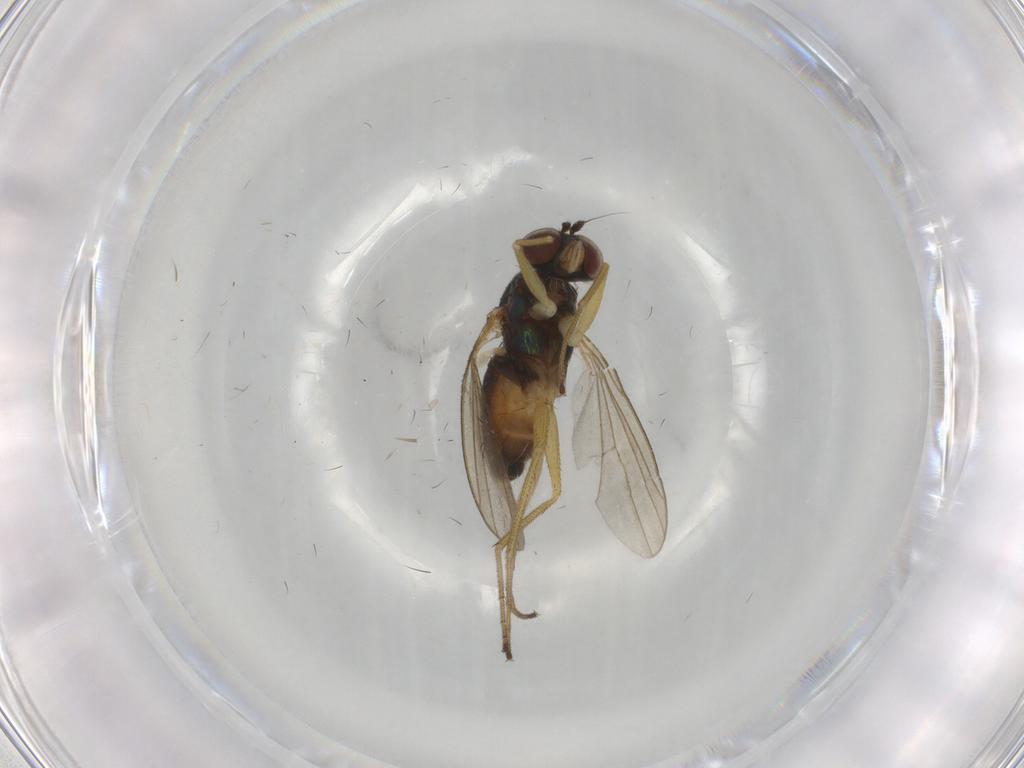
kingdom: Animalia
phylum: Arthropoda
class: Insecta
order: Diptera
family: Dolichopodidae
